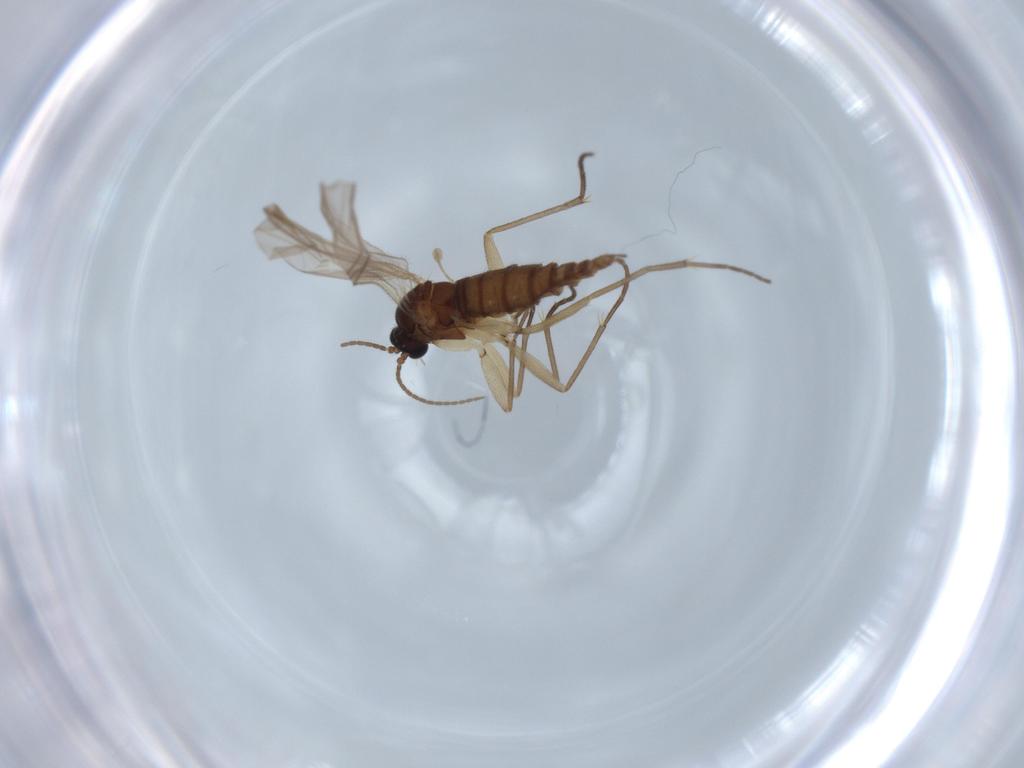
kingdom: Animalia
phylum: Arthropoda
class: Insecta
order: Diptera
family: Sciaridae
